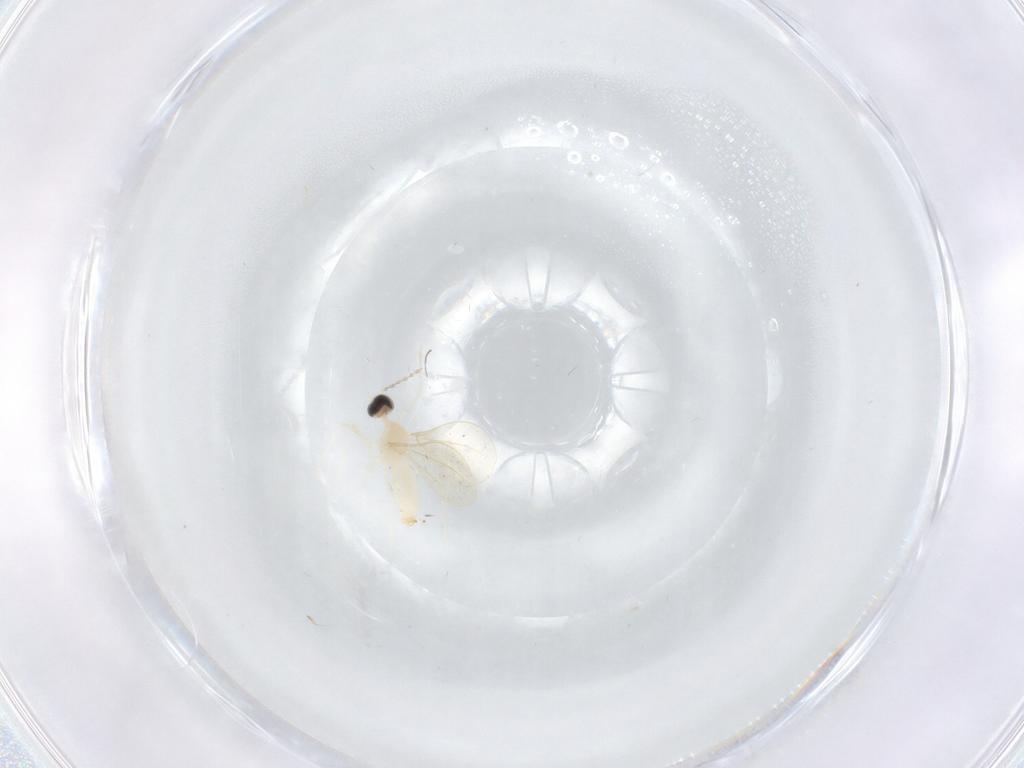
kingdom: Animalia
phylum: Arthropoda
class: Insecta
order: Diptera
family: Cecidomyiidae
